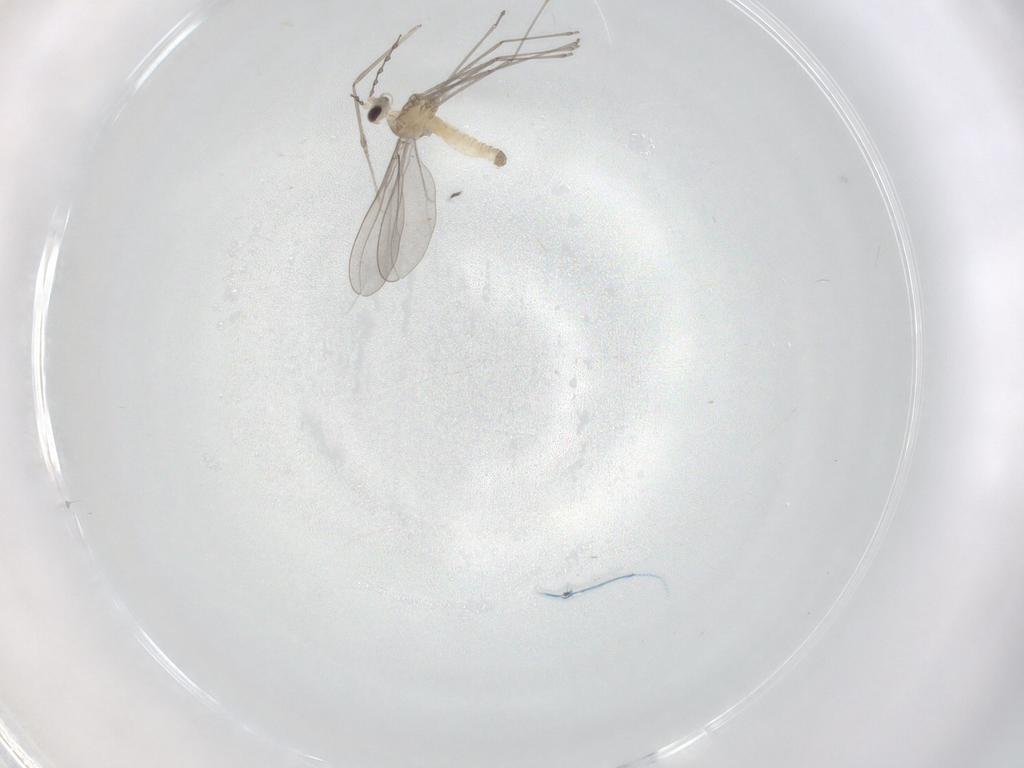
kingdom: Animalia
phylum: Arthropoda
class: Insecta
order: Diptera
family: Cecidomyiidae
